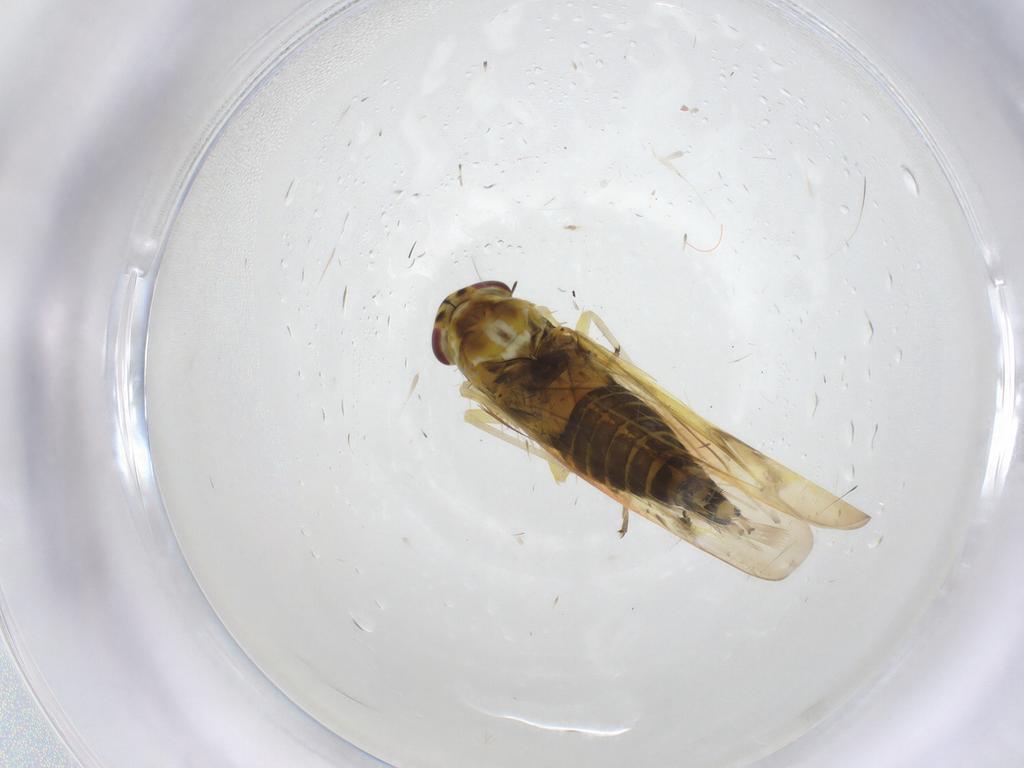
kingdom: Animalia
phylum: Arthropoda
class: Insecta
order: Hemiptera
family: Cicadellidae
